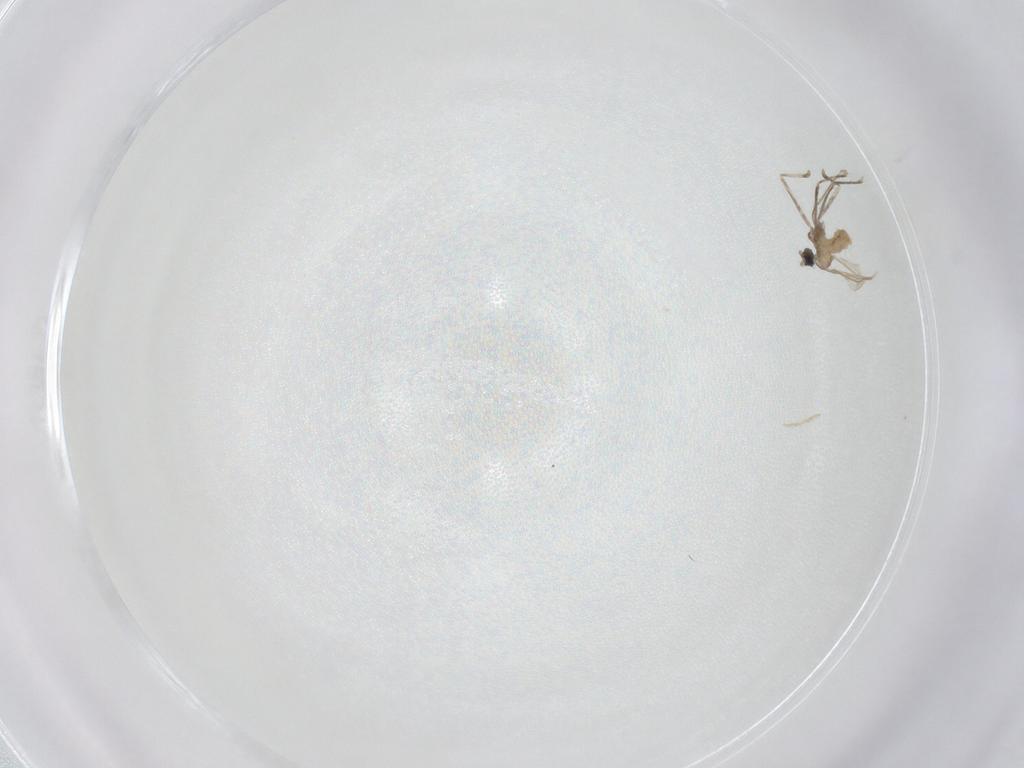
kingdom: Animalia
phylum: Arthropoda
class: Insecta
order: Diptera
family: Cecidomyiidae
